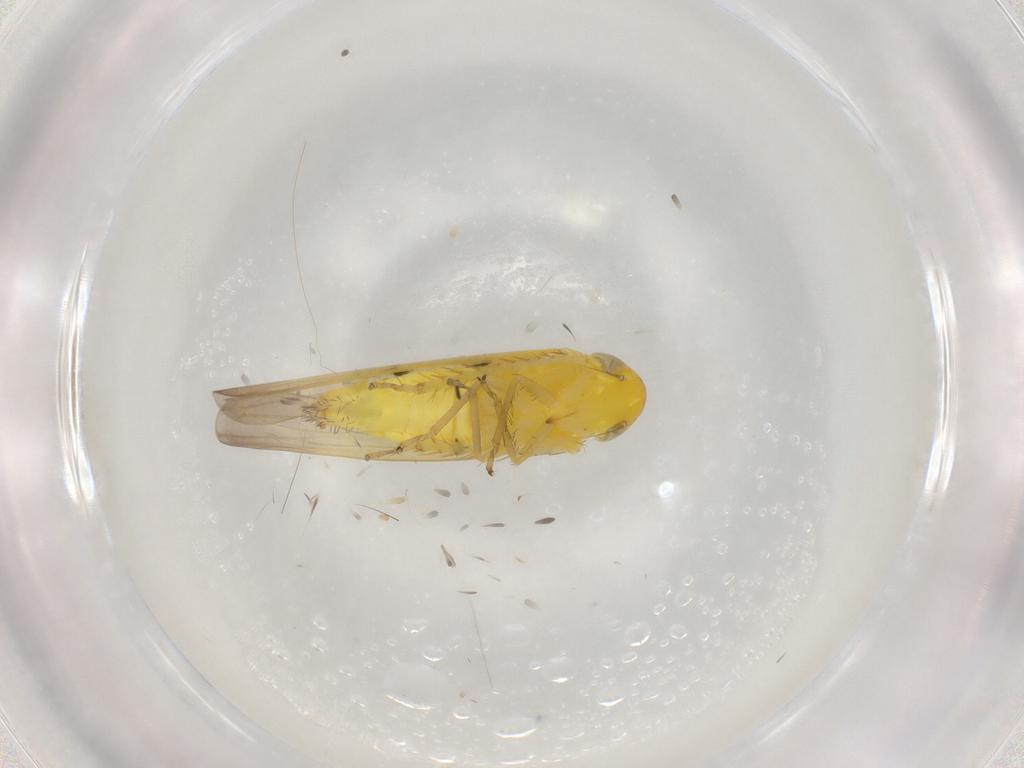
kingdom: Animalia
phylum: Arthropoda
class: Insecta
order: Hemiptera
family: Cicadellidae
